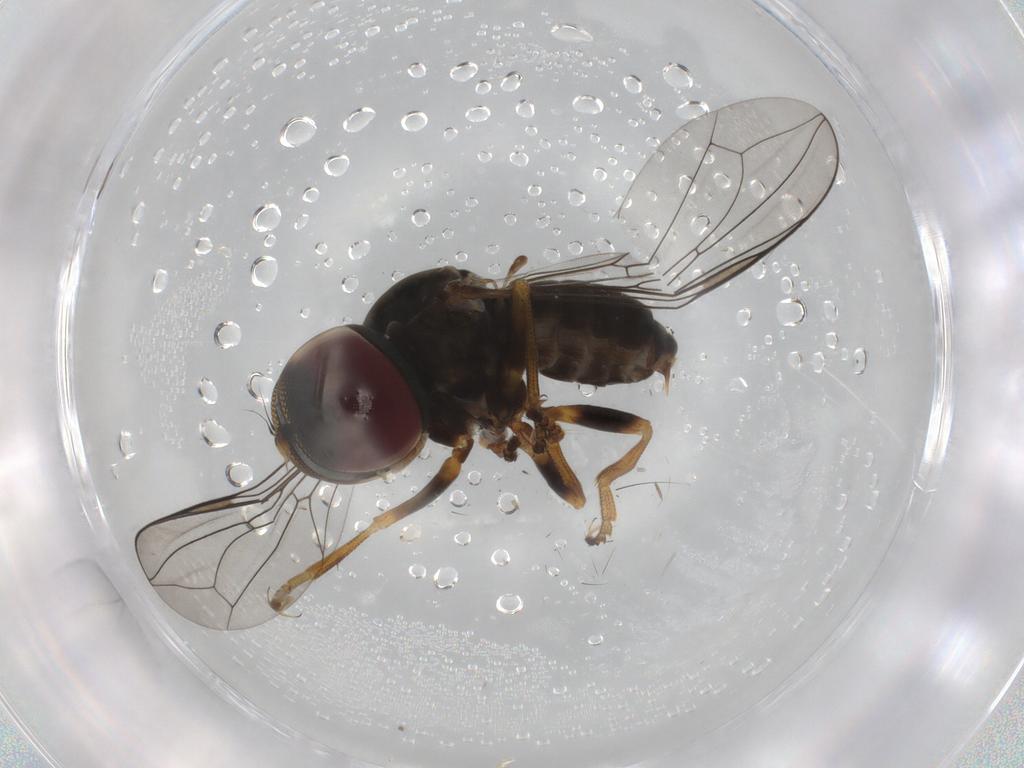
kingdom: Animalia
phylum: Arthropoda
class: Insecta
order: Diptera
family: Pipunculidae
